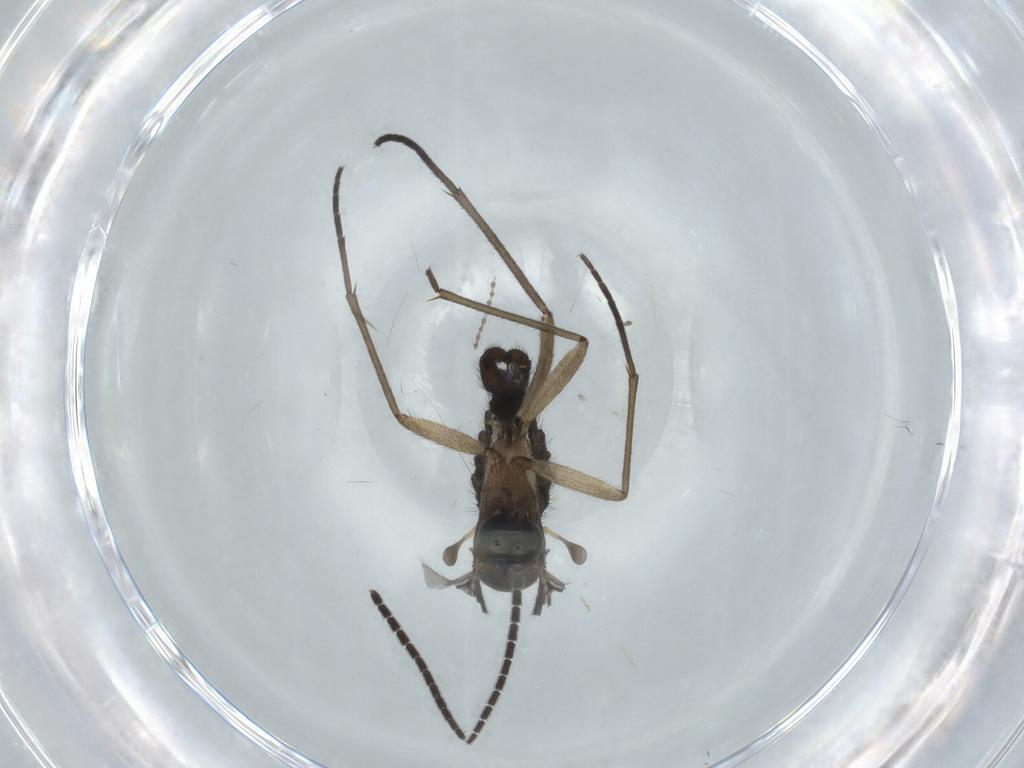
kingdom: Animalia
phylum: Arthropoda
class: Insecta
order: Diptera
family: Sciaridae
